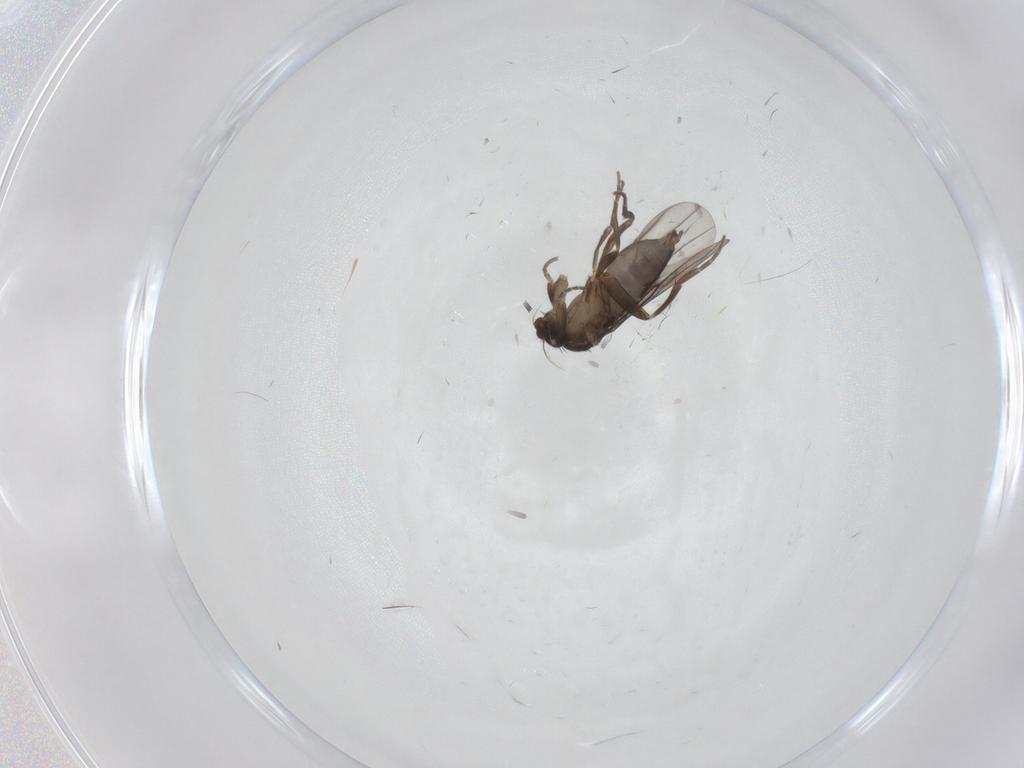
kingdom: Animalia
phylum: Arthropoda
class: Insecta
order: Diptera
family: Phoridae
